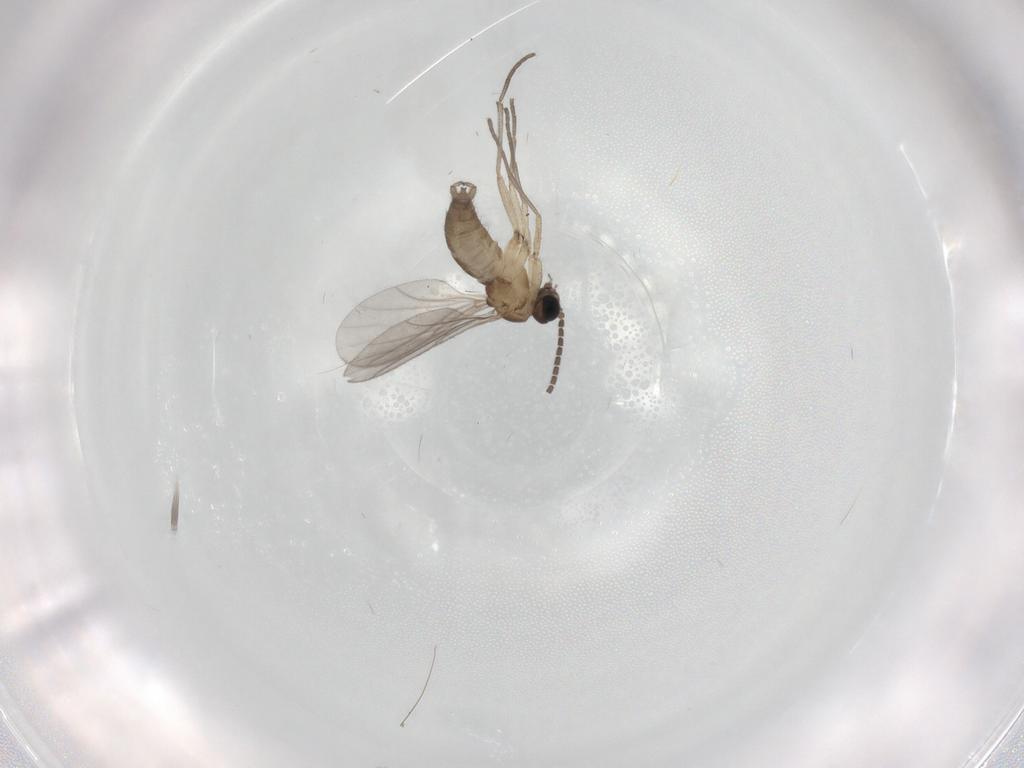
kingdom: Animalia
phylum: Arthropoda
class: Insecta
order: Diptera
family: Sciaridae
